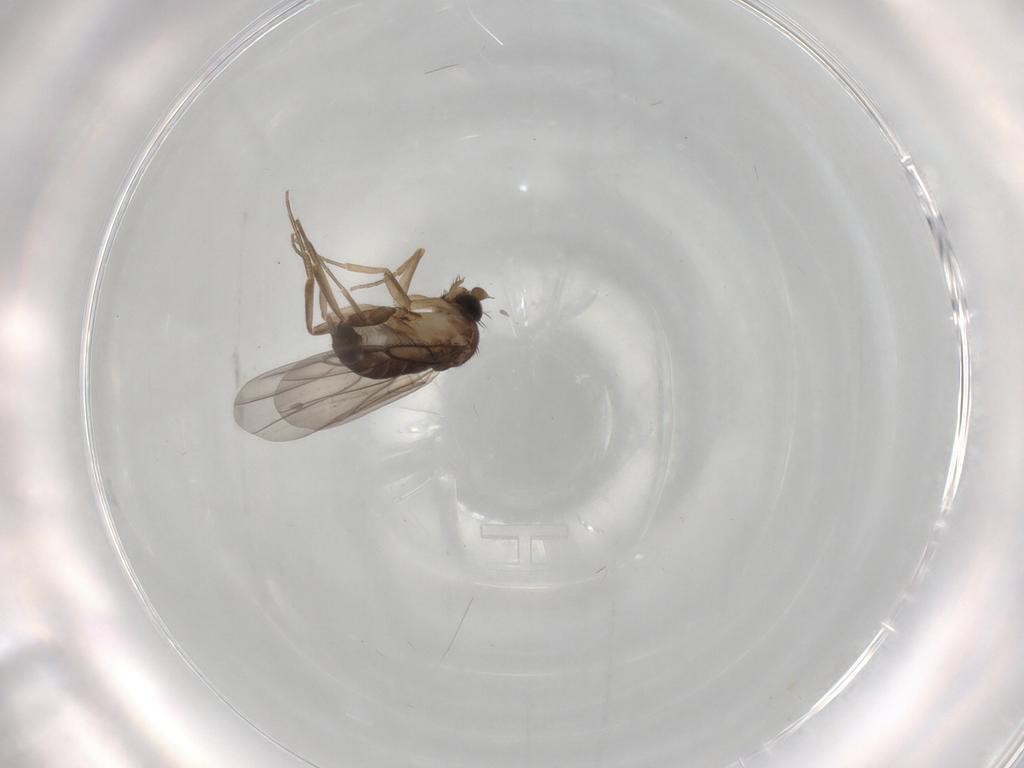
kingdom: Animalia
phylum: Arthropoda
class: Insecta
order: Diptera
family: Phoridae
